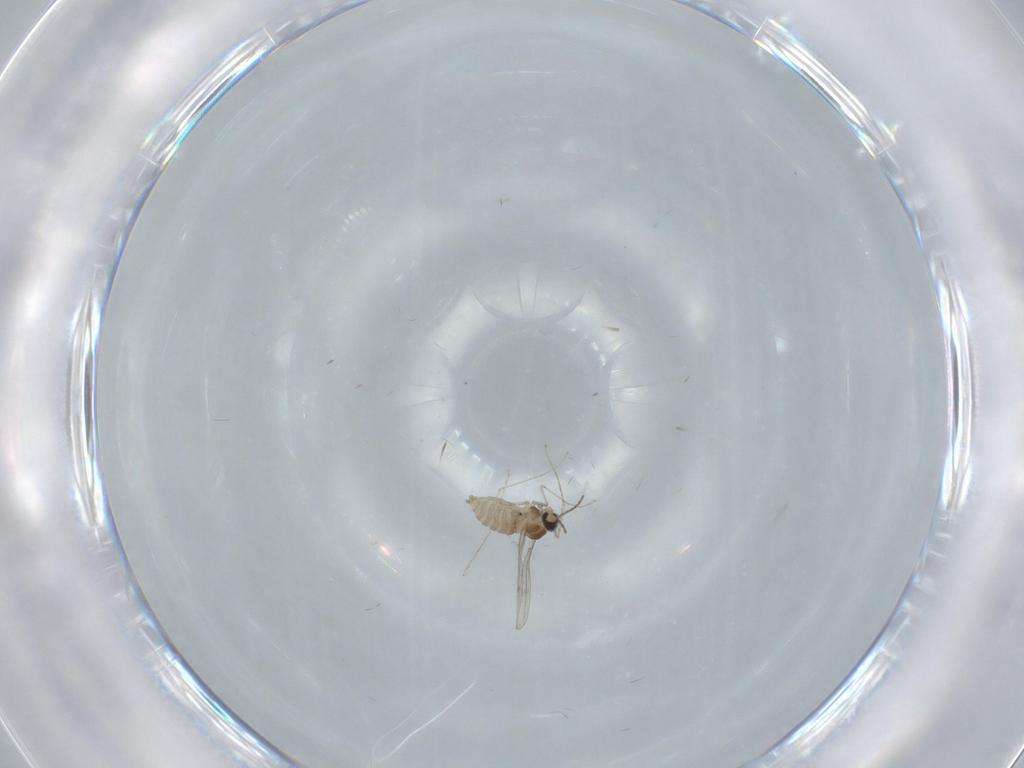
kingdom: Animalia
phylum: Arthropoda
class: Insecta
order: Diptera
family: Cecidomyiidae
